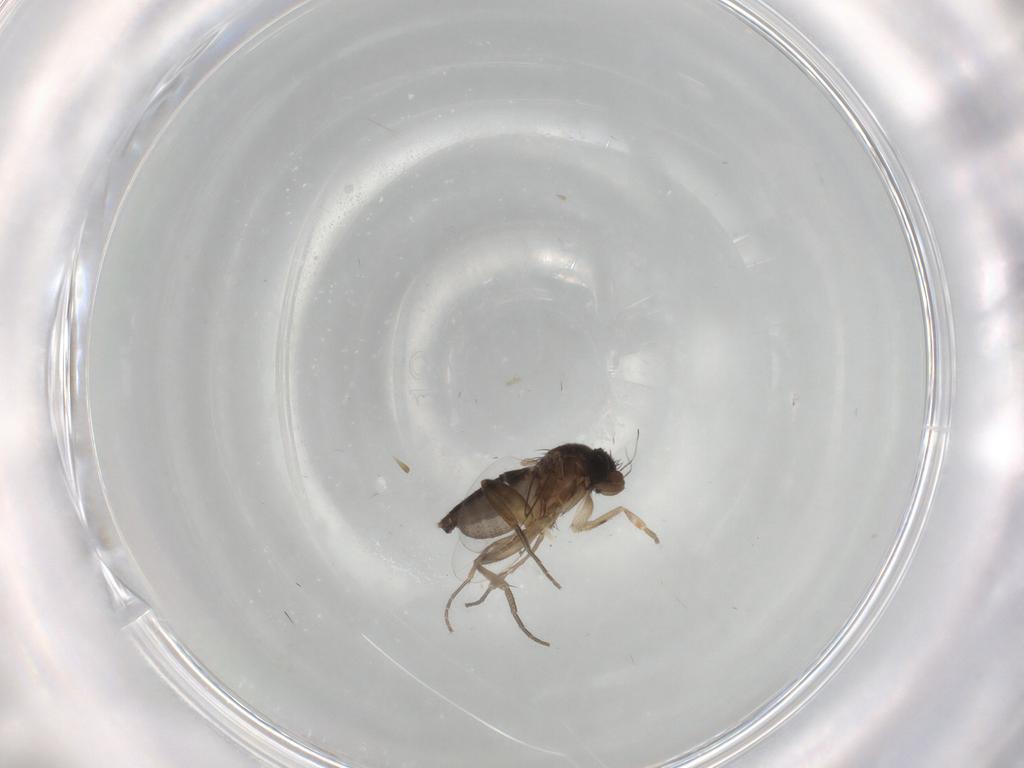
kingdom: Animalia
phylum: Arthropoda
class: Insecta
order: Diptera
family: Phoridae
